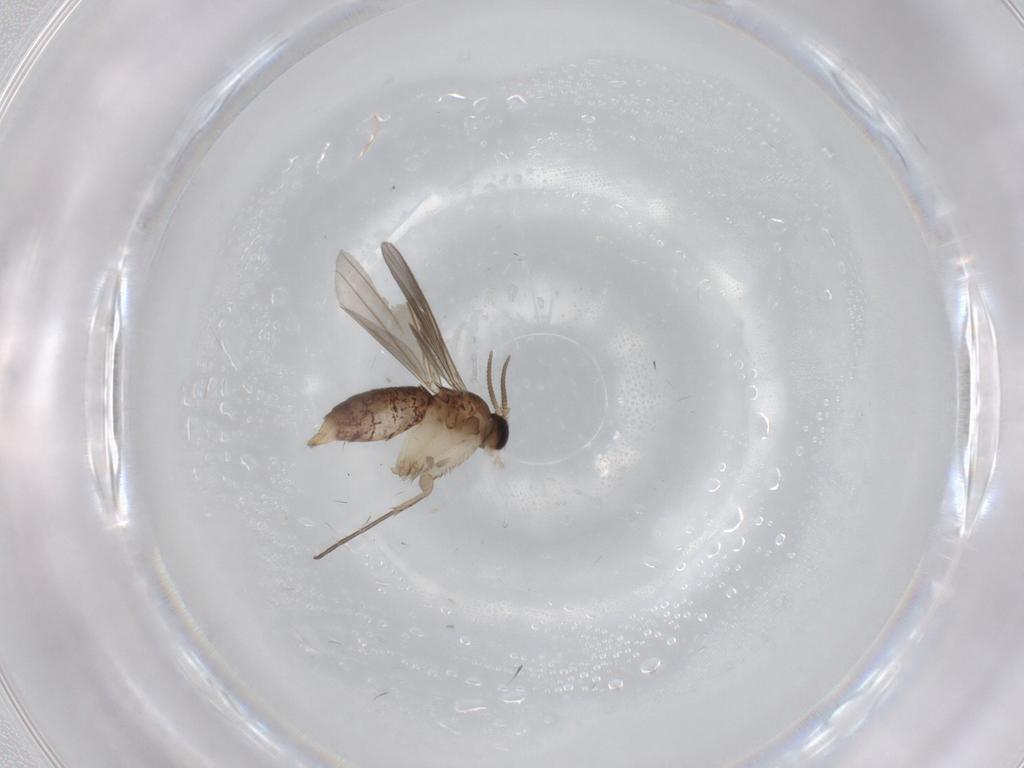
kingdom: Animalia
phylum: Arthropoda
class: Insecta
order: Diptera
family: Mycetophilidae
